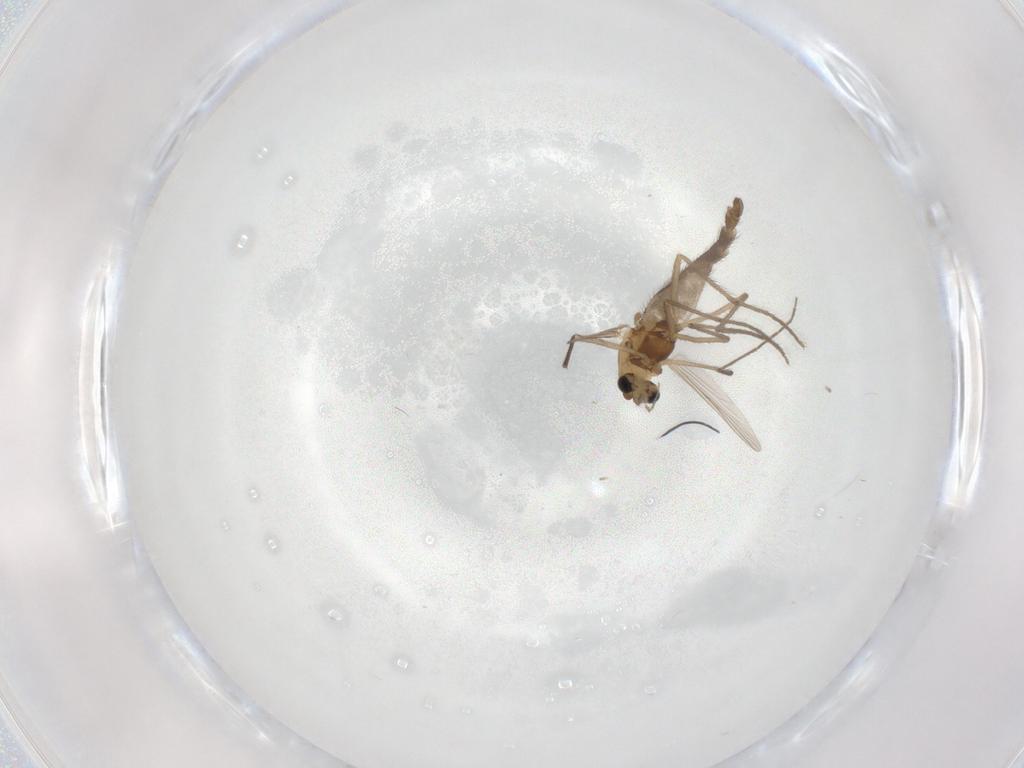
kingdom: Animalia
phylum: Arthropoda
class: Insecta
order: Diptera
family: Chironomidae
